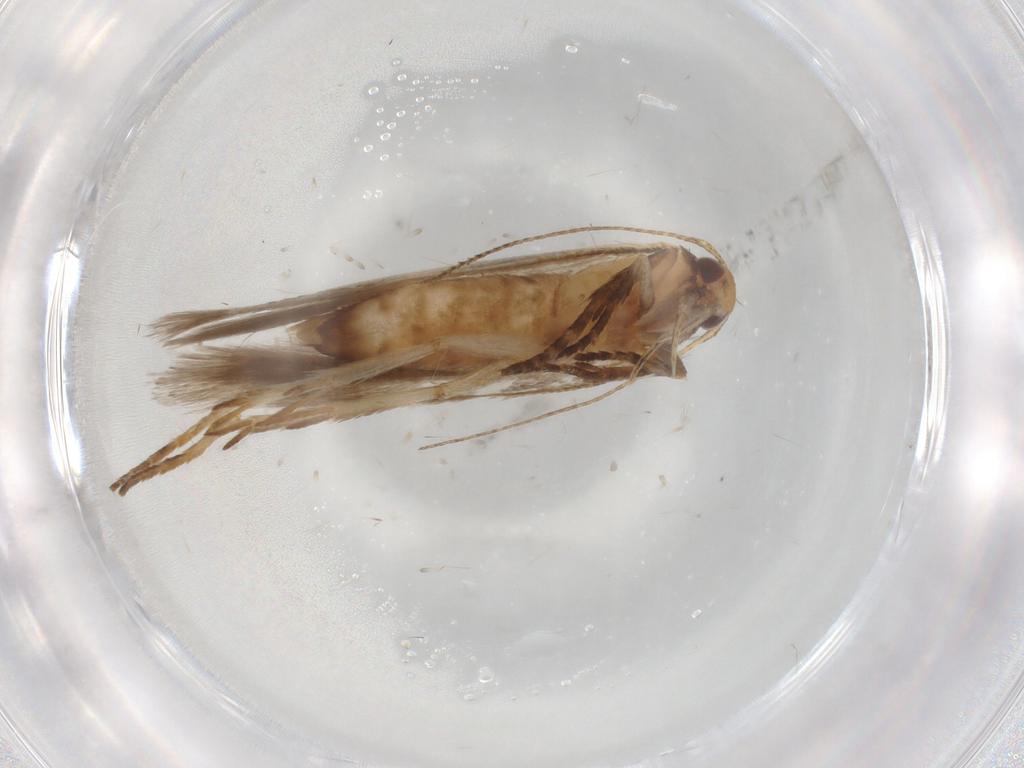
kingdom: Animalia
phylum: Arthropoda
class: Insecta
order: Lepidoptera
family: Gelechiidae
